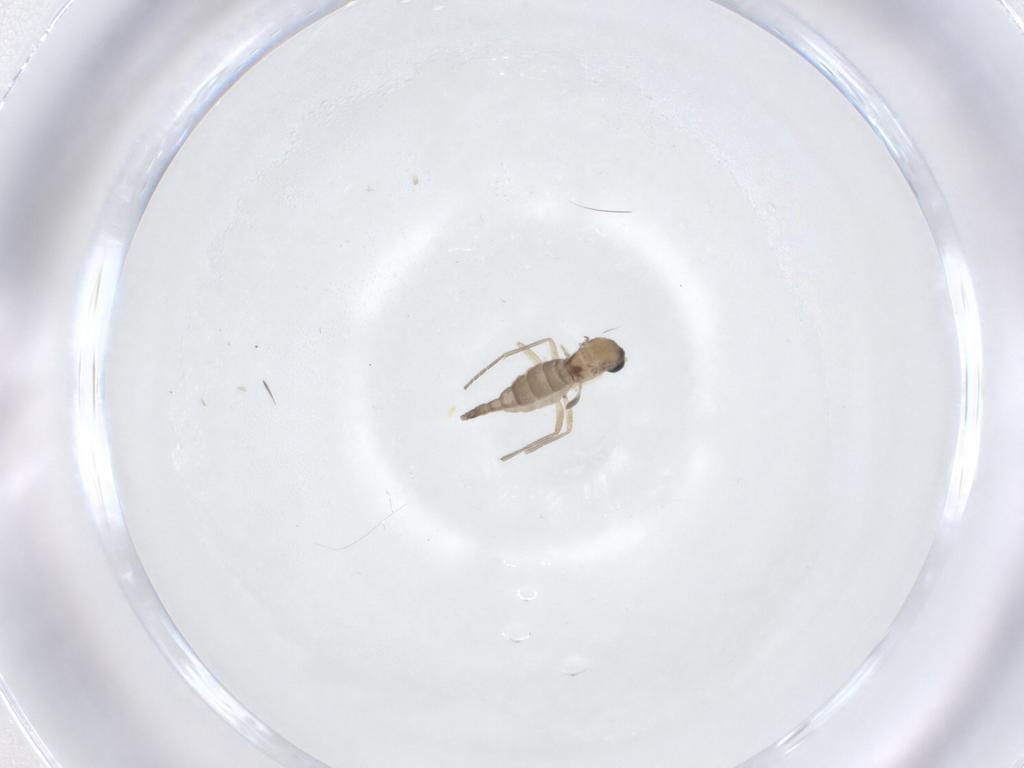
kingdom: Animalia
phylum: Arthropoda
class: Insecta
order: Diptera
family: Sciaridae
